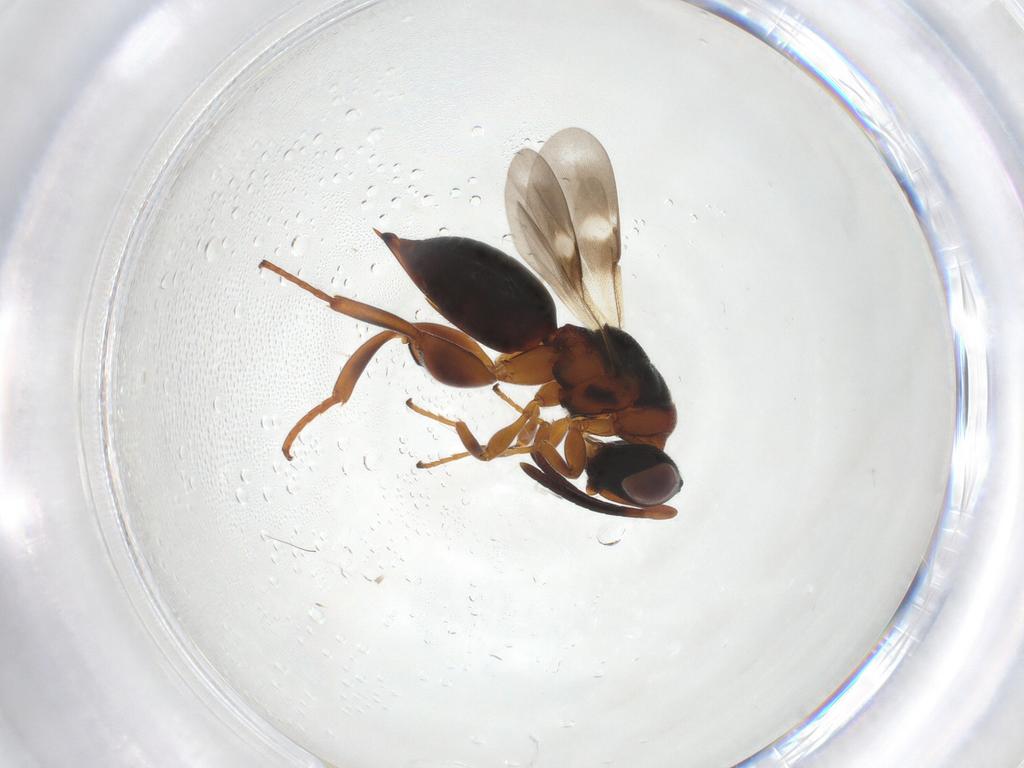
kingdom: Animalia
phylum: Arthropoda
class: Insecta
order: Hymenoptera
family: Chalcididae
